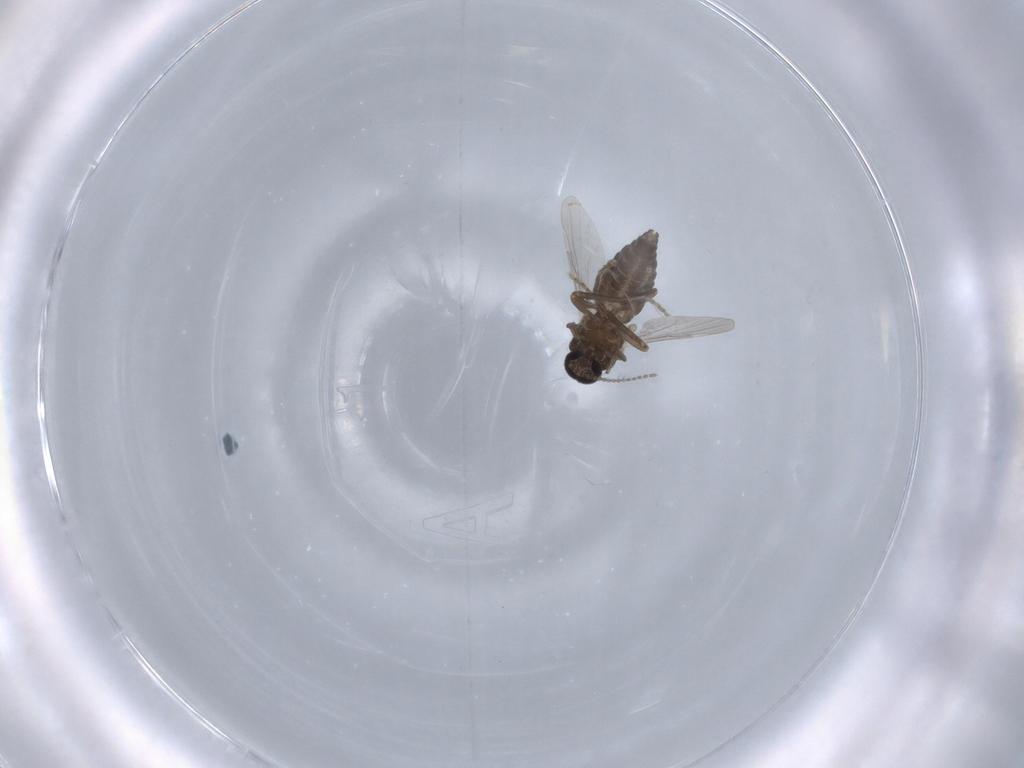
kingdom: Animalia
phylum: Arthropoda
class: Insecta
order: Diptera
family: Ceratopogonidae
